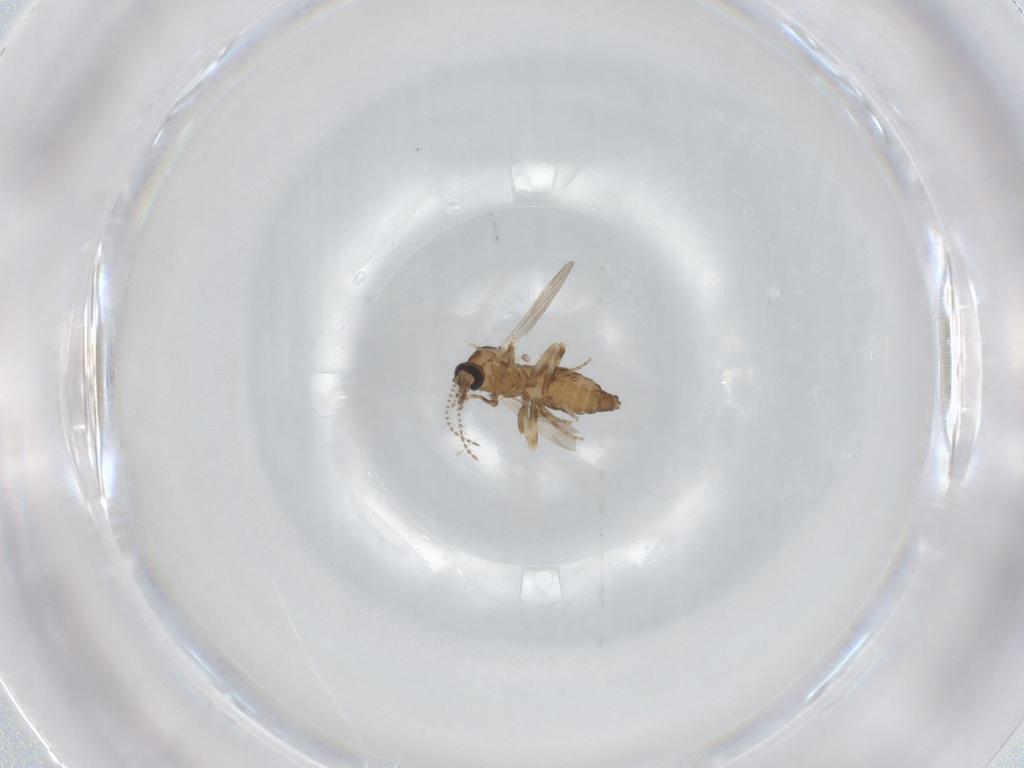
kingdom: Animalia
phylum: Arthropoda
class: Insecta
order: Diptera
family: Ceratopogonidae
